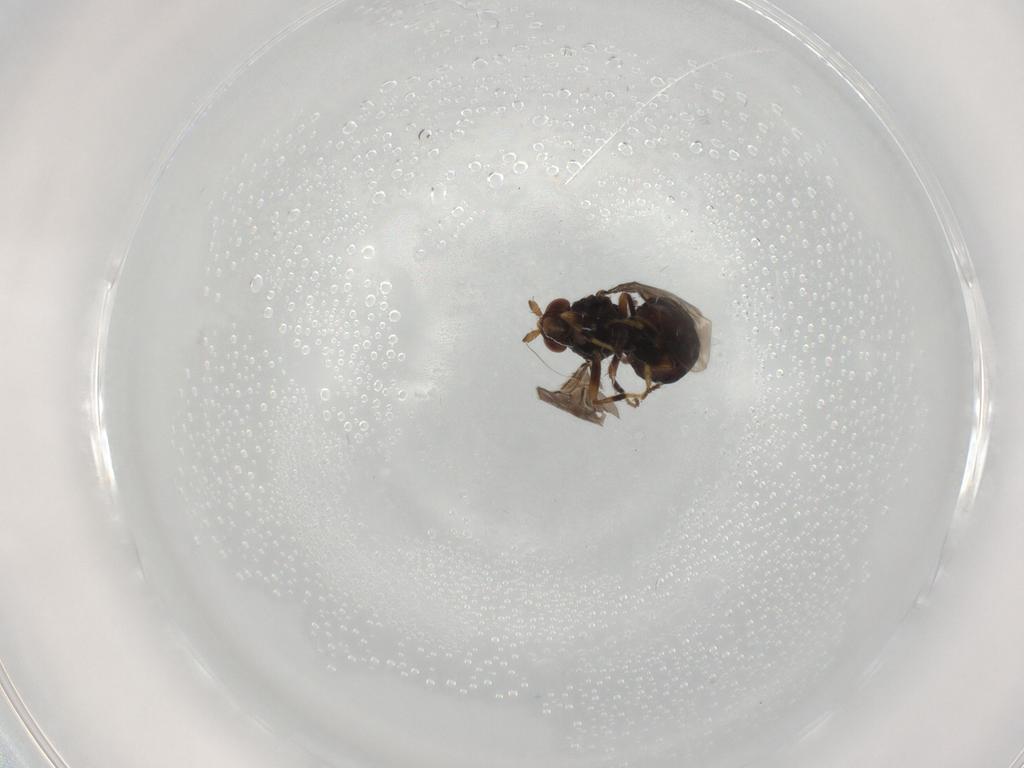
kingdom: Animalia
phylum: Arthropoda
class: Insecta
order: Diptera
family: Sphaeroceridae
